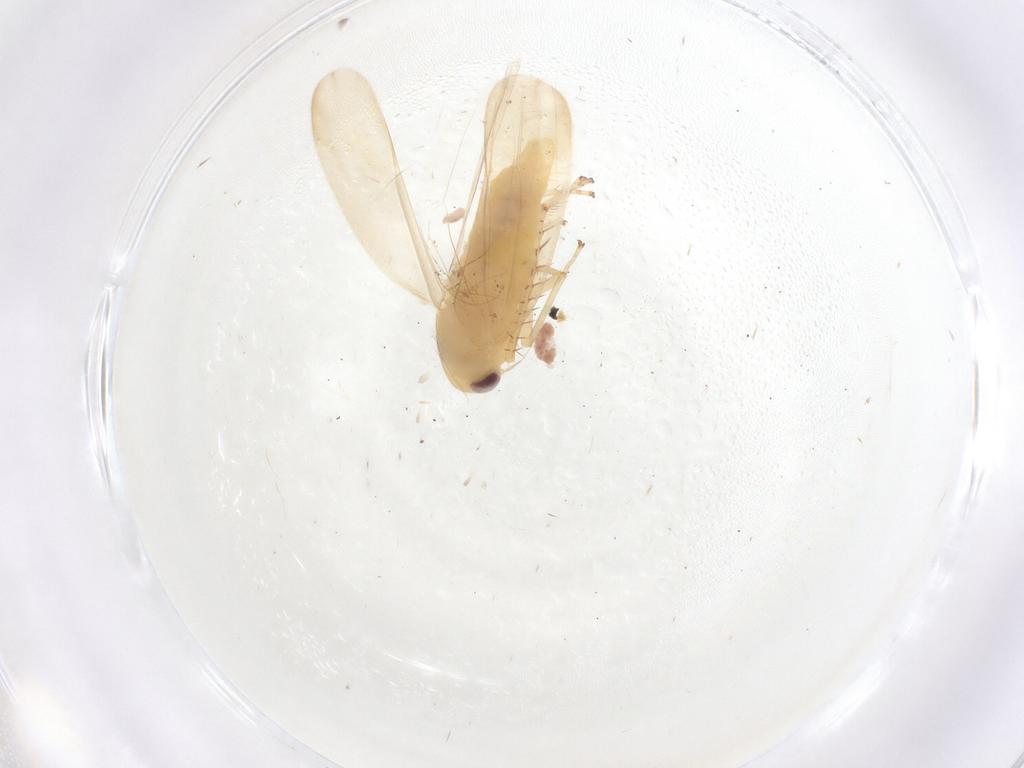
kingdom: Animalia
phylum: Arthropoda
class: Insecta
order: Hemiptera
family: Cicadellidae
